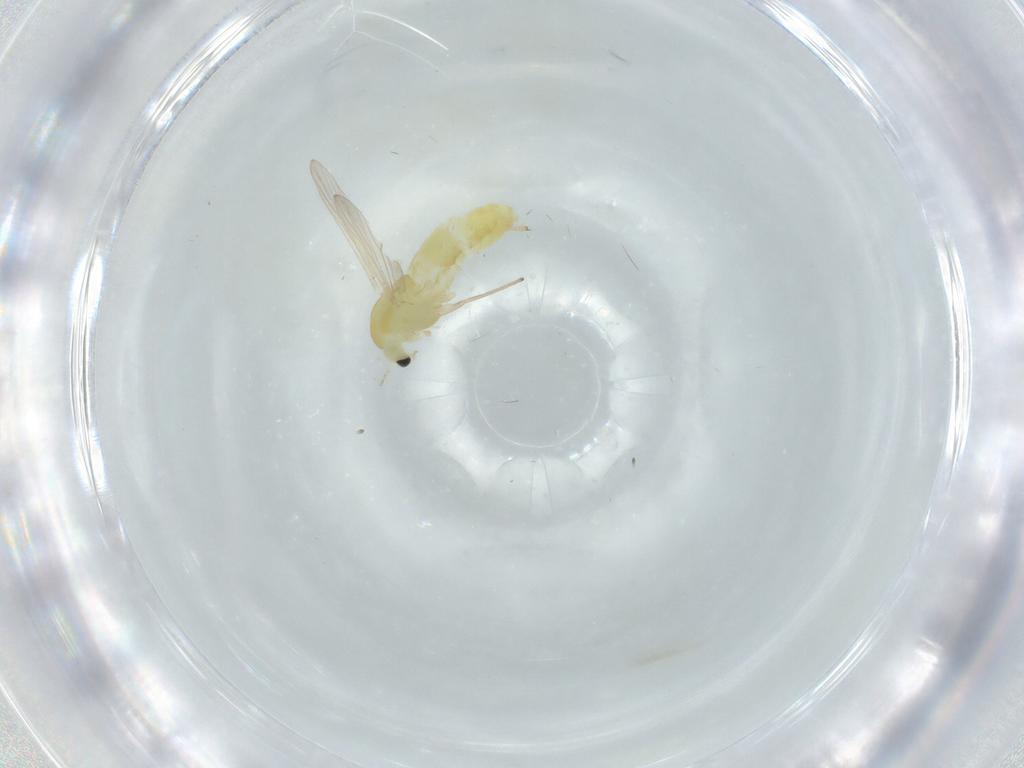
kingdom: Animalia
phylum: Arthropoda
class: Insecta
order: Diptera
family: Chironomidae
